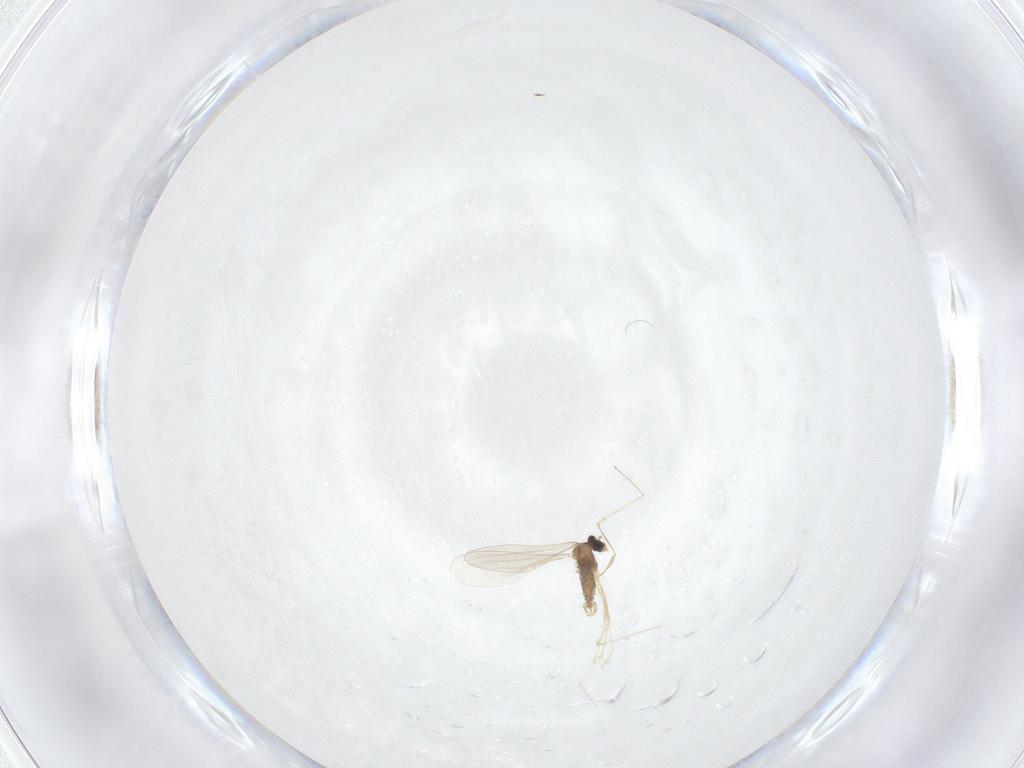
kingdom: Animalia
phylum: Arthropoda
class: Insecta
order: Diptera
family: Cecidomyiidae
